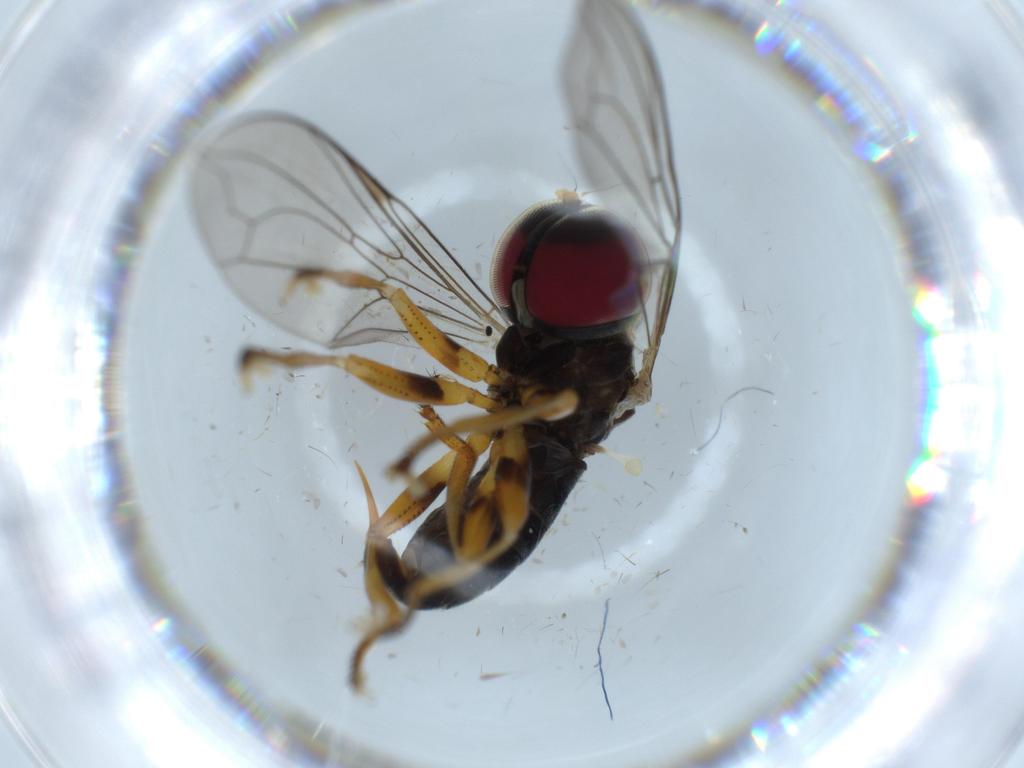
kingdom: Animalia
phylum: Arthropoda
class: Insecta
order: Diptera
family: Pipunculidae
